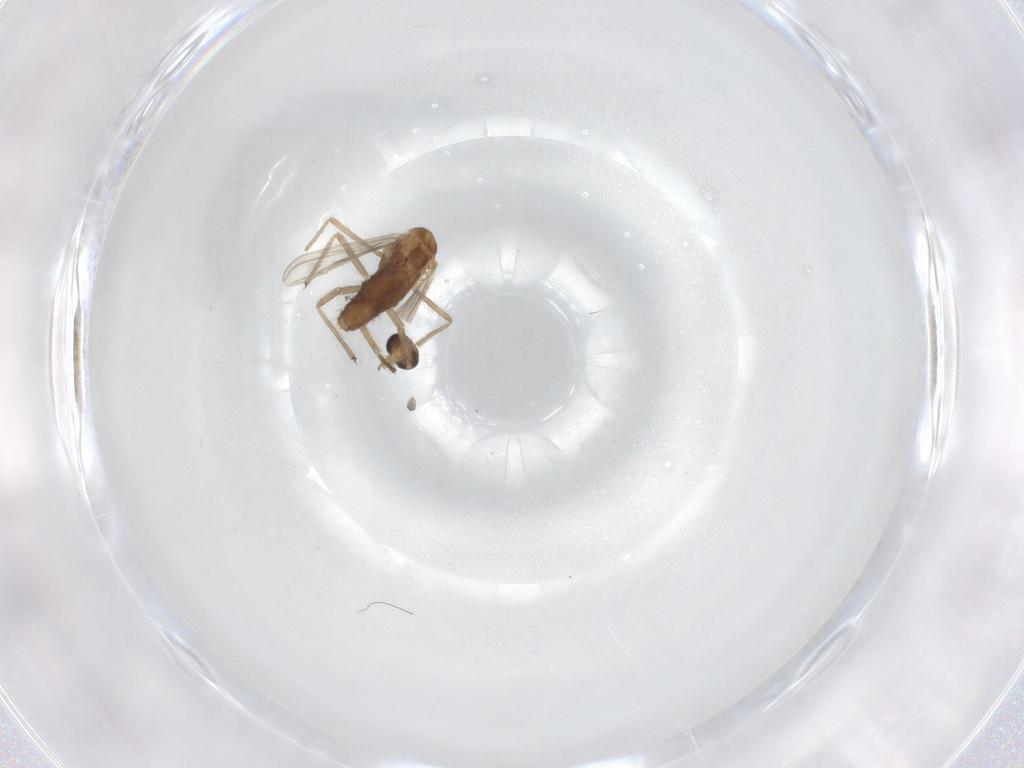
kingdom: Animalia
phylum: Arthropoda
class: Insecta
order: Diptera
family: Chironomidae
